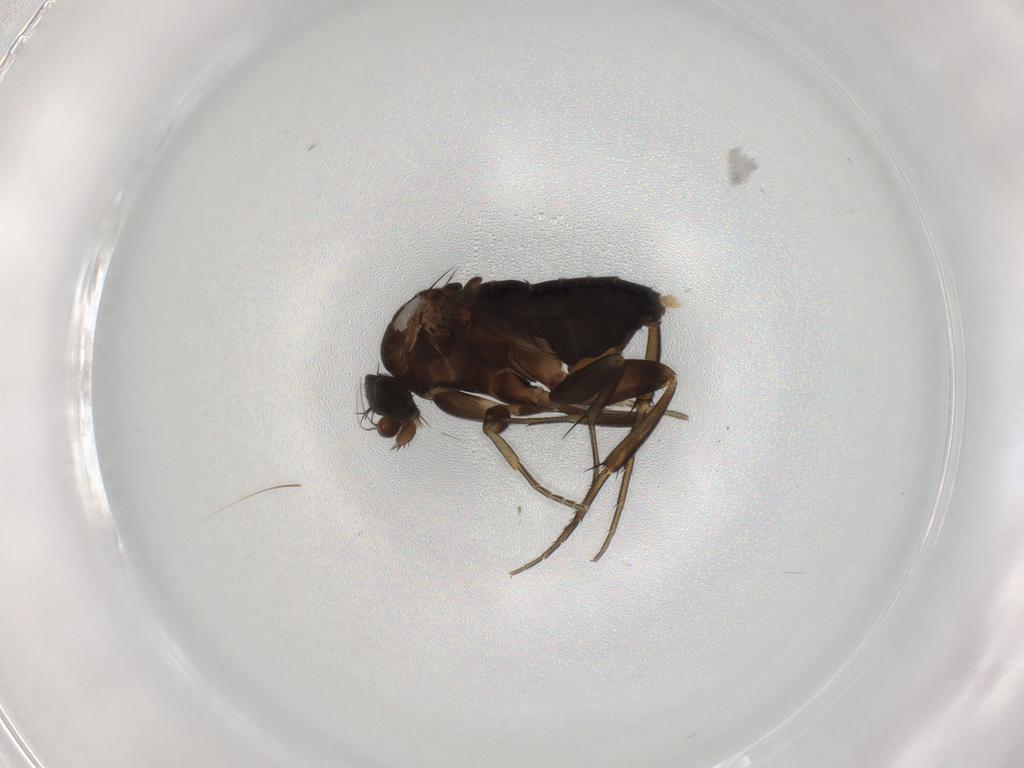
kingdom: Animalia
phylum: Arthropoda
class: Insecta
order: Diptera
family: Phoridae
